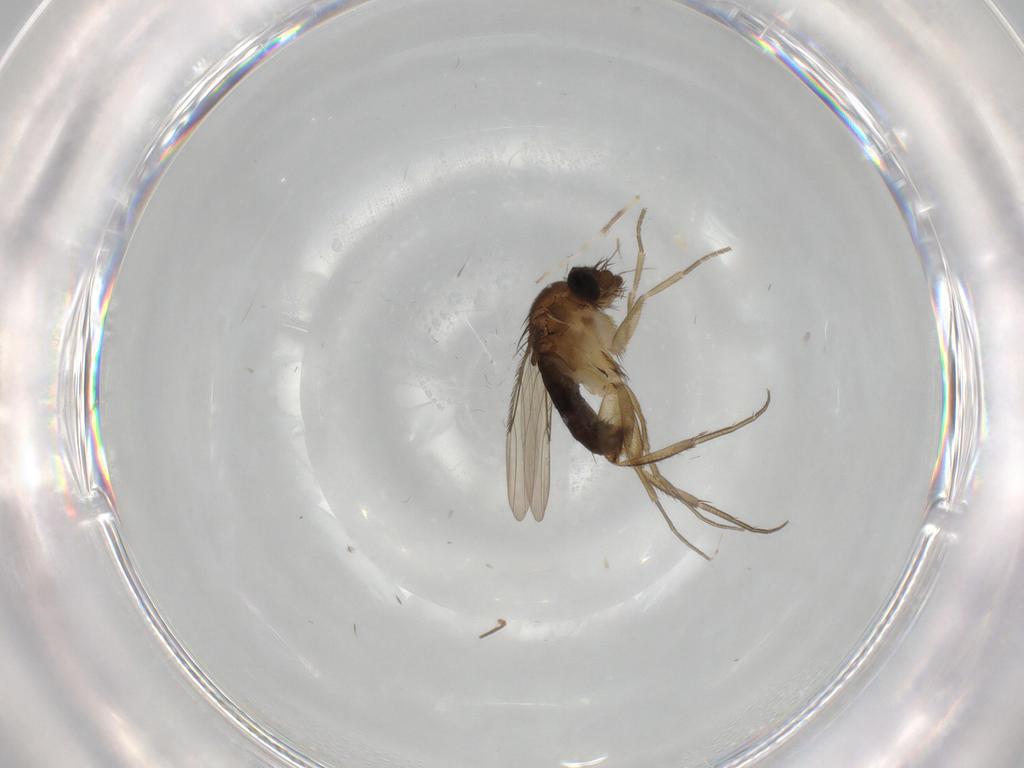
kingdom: Animalia
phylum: Arthropoda
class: Insecta
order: Diptera
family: Phoridae
